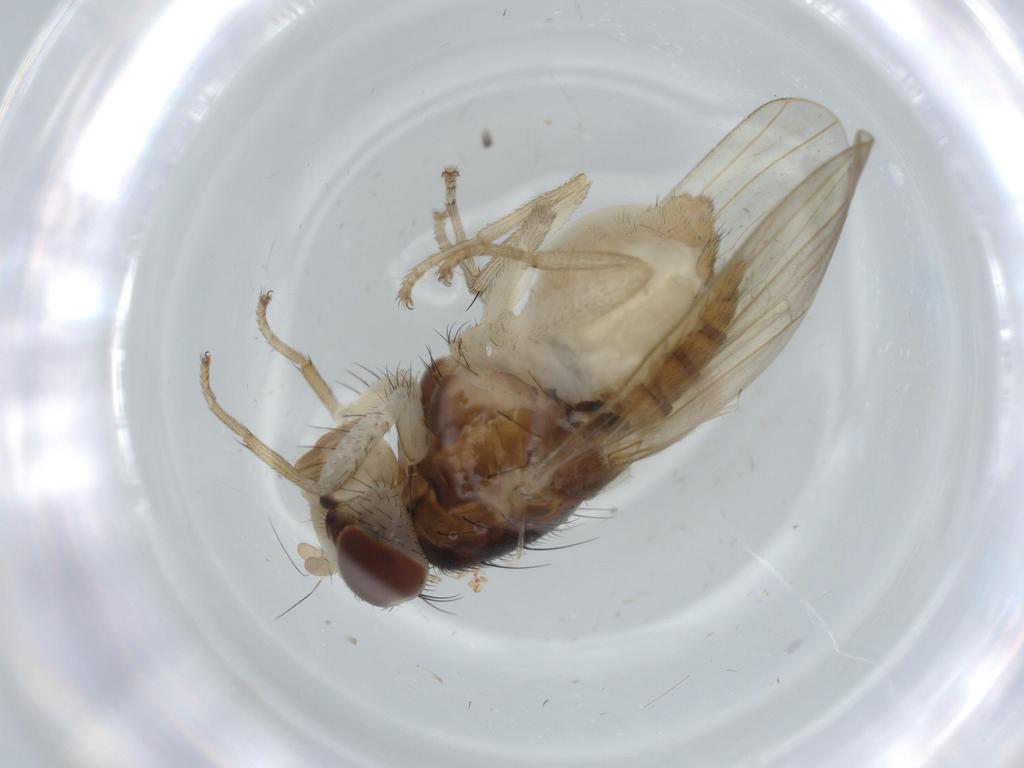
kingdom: Animalia
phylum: Arthropoda
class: Insecta
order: Diptera
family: Lauxaniidae
